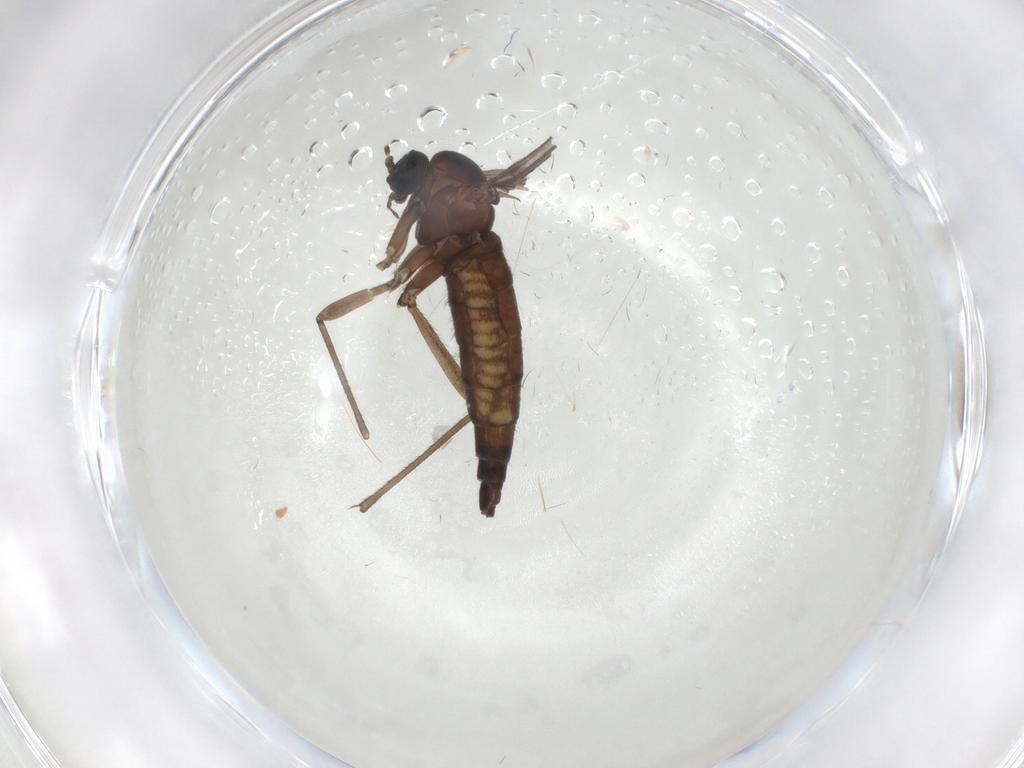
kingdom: Animalia
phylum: Arthropoda
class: Insecta
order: Diptera
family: Sciaridae
